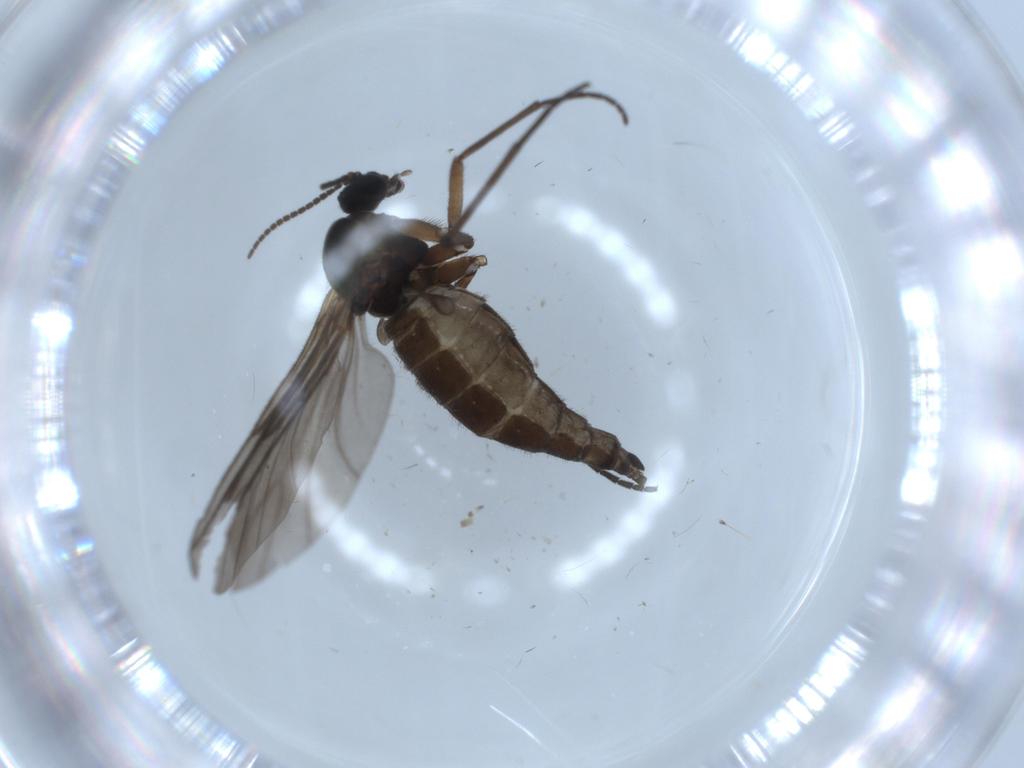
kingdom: Animalia
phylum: Arthropoda
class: Insecta
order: Diptera
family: Sciaridae
